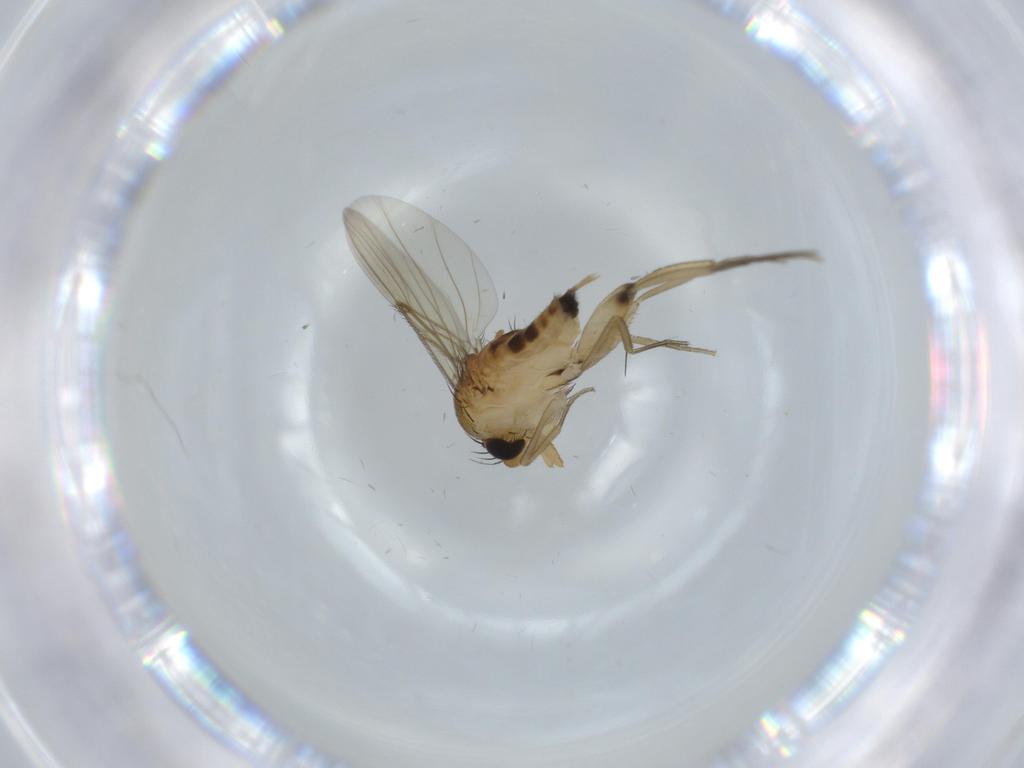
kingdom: Animalia
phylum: Arthropoda
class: Insecta
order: Diptera
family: Phoridae
